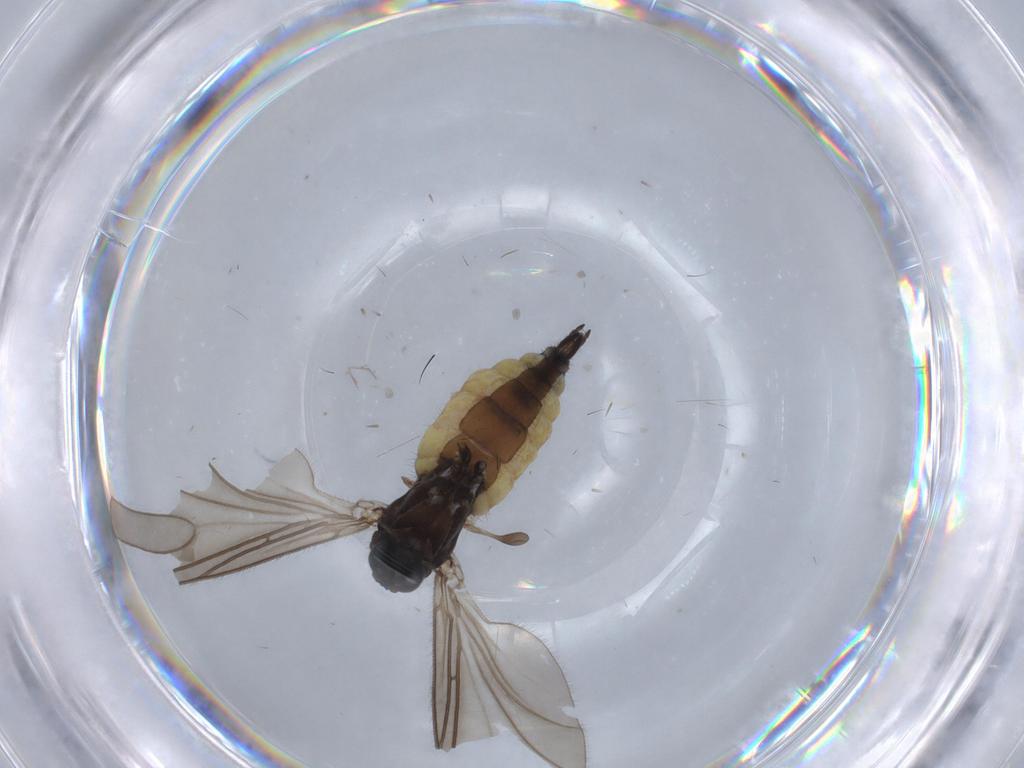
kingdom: Animalia
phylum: Arthropoda
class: Insecta
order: Diptera
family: Sciaridae
